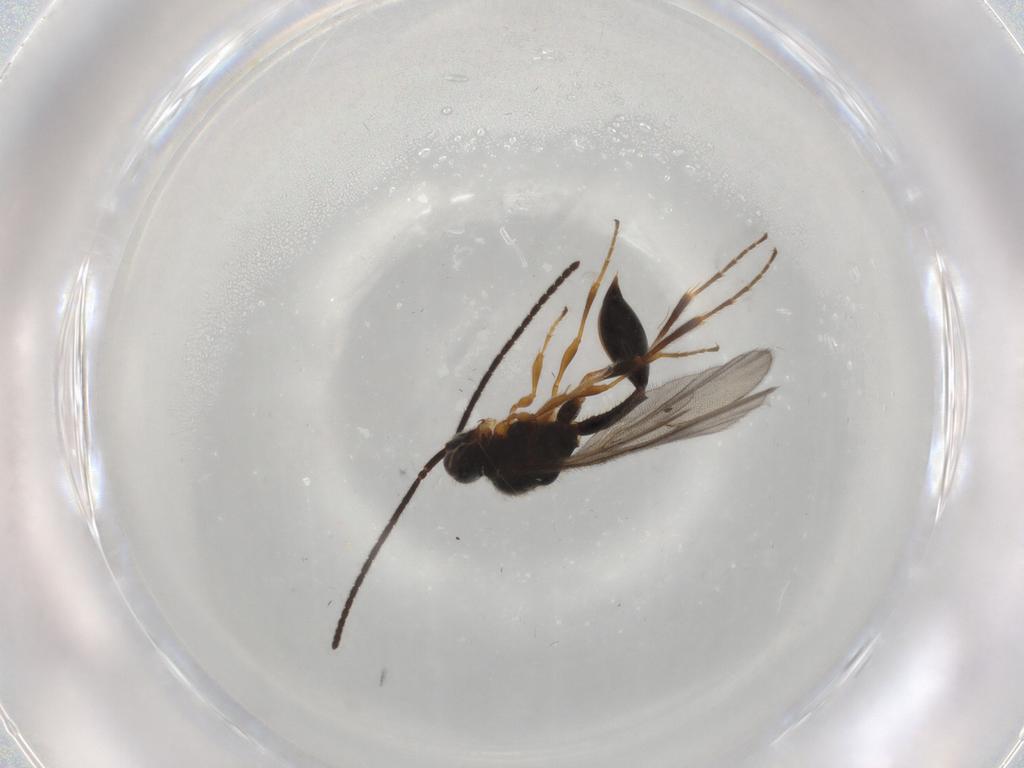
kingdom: Animalia
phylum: Arthropoda
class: Insecta
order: Hymenoptera
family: Diapriidae
